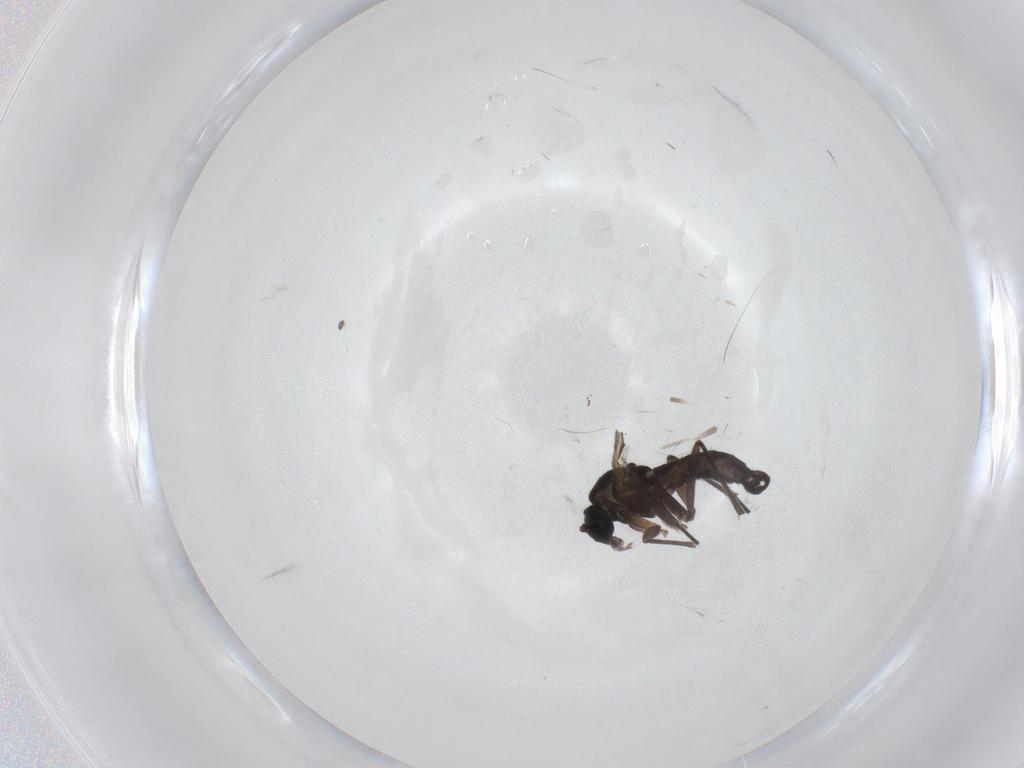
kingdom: Animalia
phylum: Arthropoda
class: Insecta
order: Diptera
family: Sciaridae
